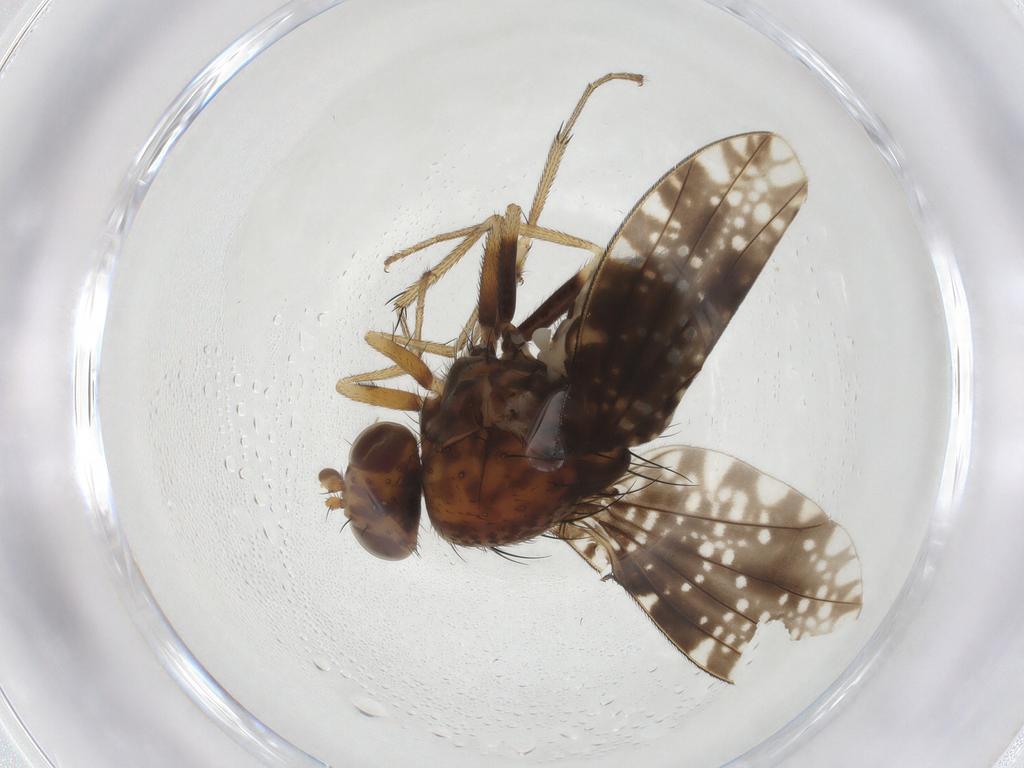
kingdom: Animalia
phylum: Arthropoda
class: Insecta
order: Diptera
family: Lauxaniidae
